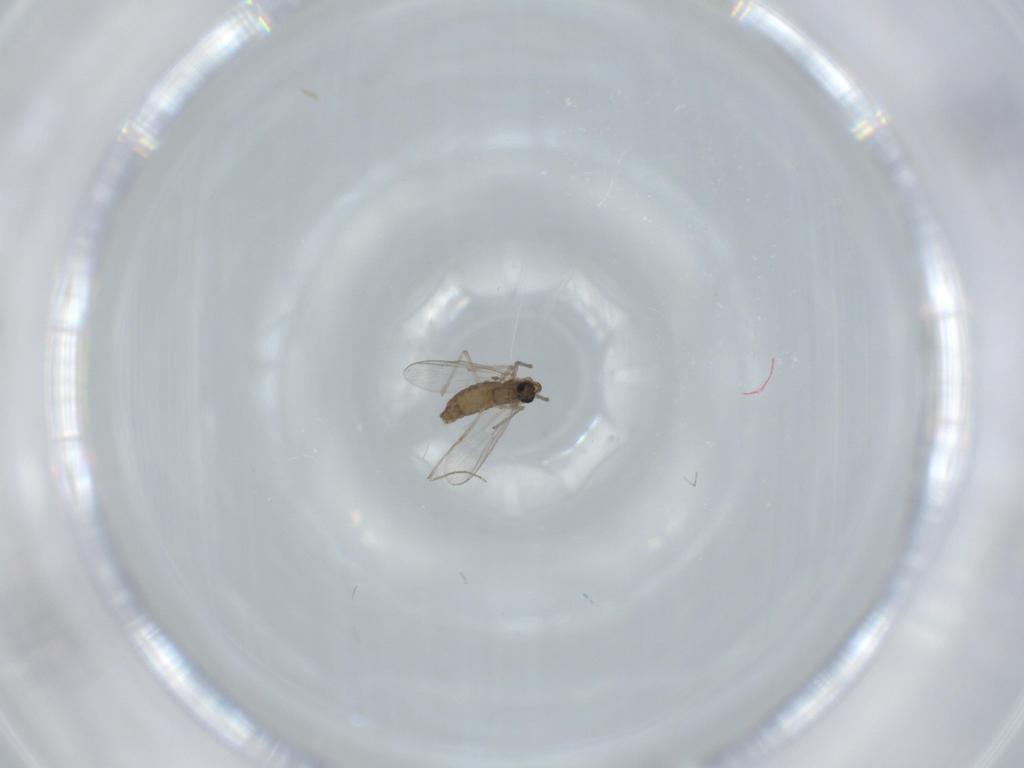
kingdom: Animalia
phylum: Arthropoda
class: Insecta
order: Diptera
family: Chironomidae
